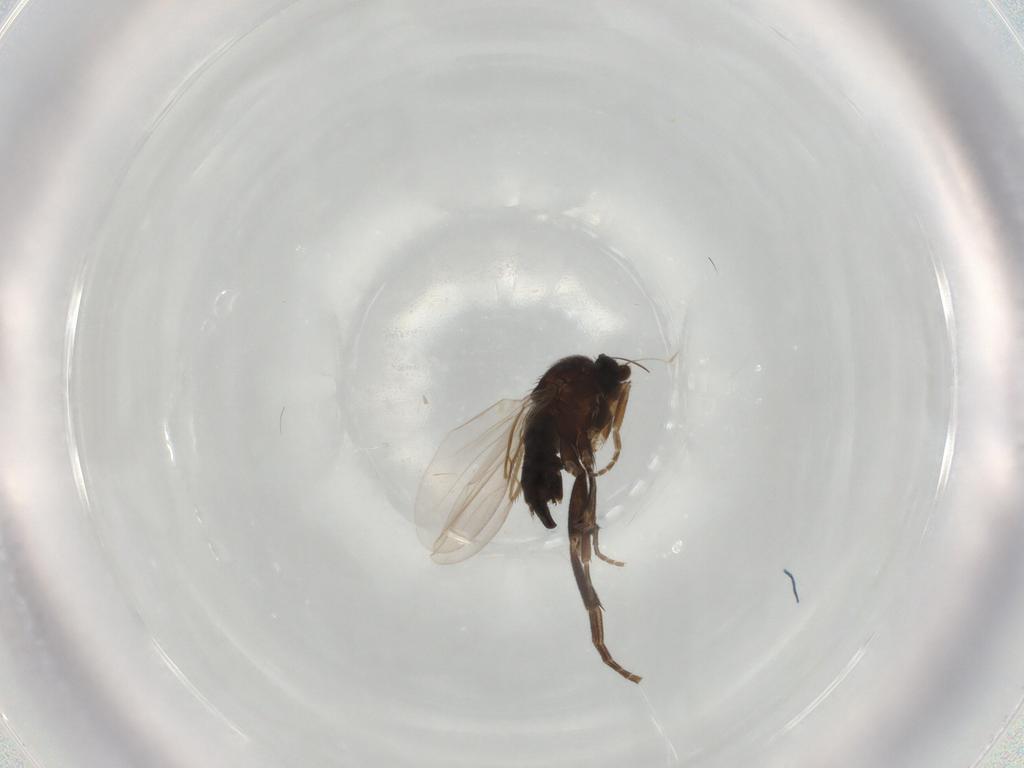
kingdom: Animalia
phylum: Arthropoda
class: Insecta
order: Diptera
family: Phoridae
